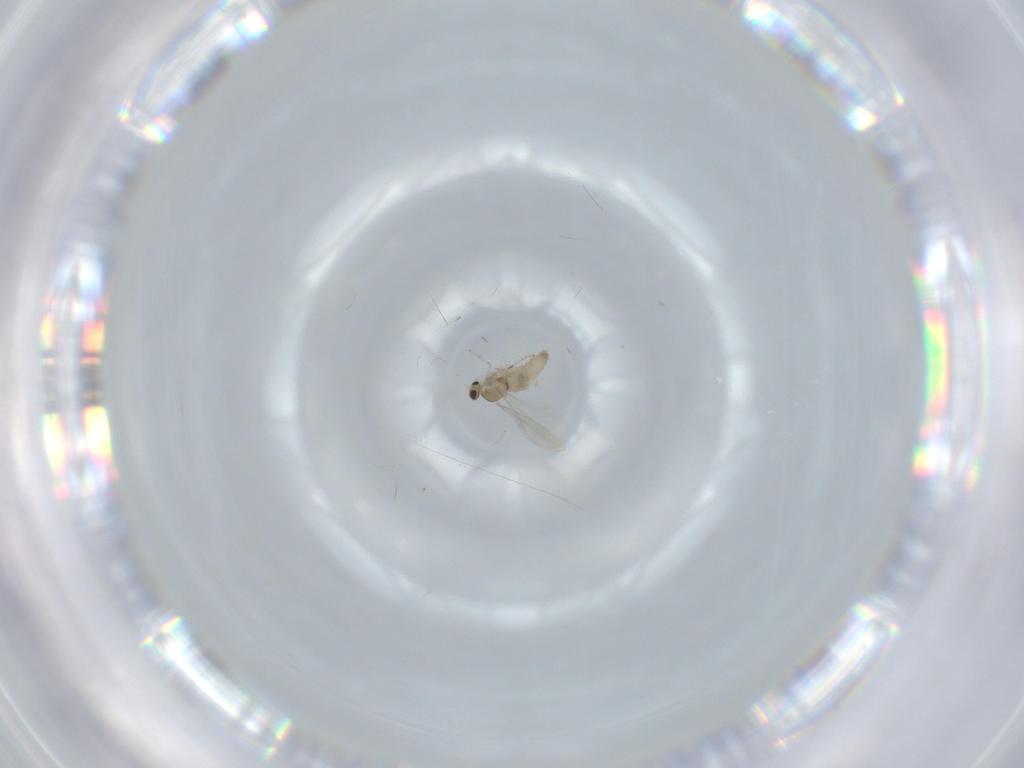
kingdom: Animalia
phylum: Arthropoda
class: Insecta
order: Diptera
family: Cecidomyiidae
